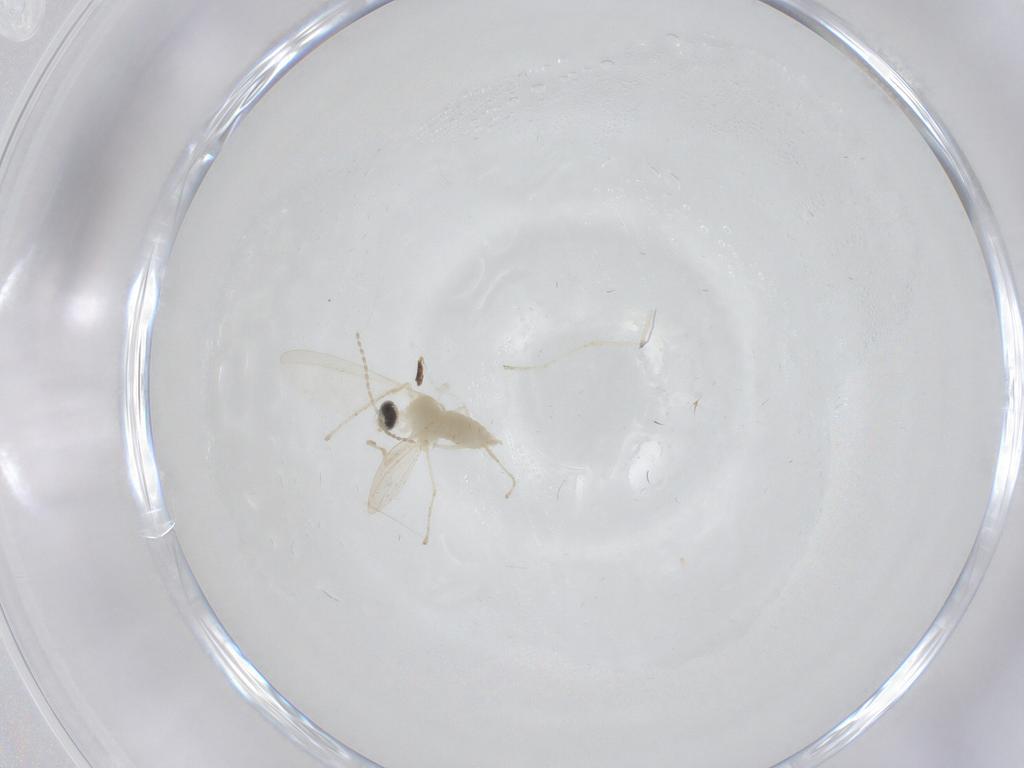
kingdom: Animalia
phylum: Arthropoda
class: Insecta
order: Diptera
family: Cecidomyiidae
